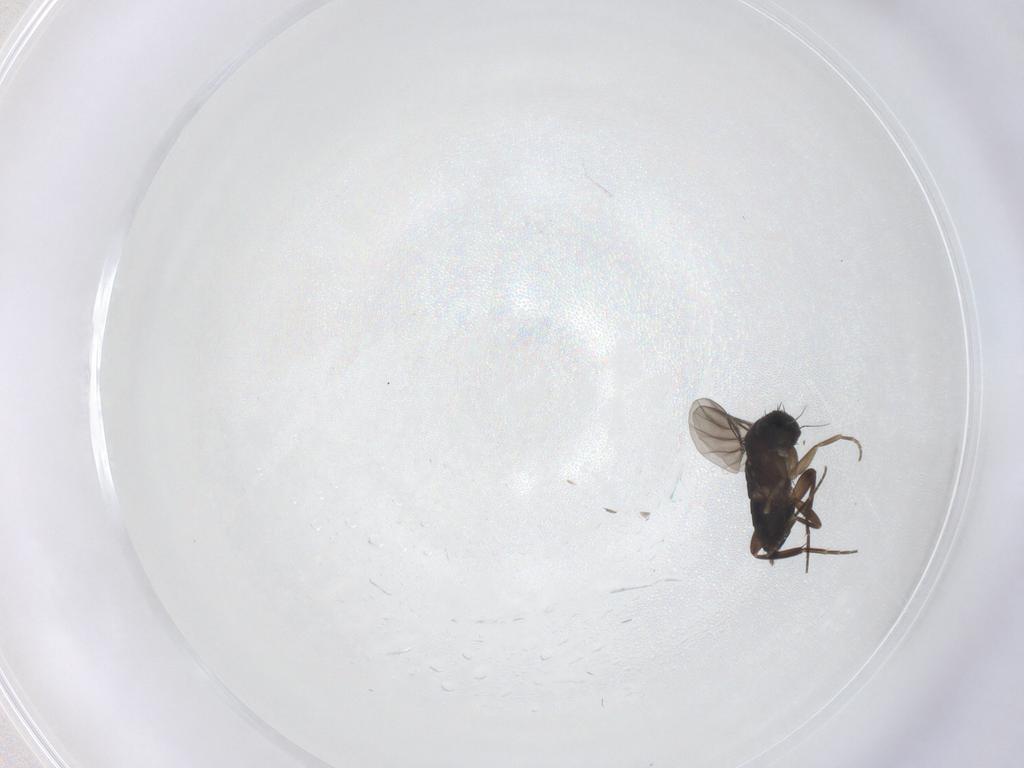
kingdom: Animalia
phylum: Arthropoda
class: Insecta
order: Diptera
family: Phoridae
